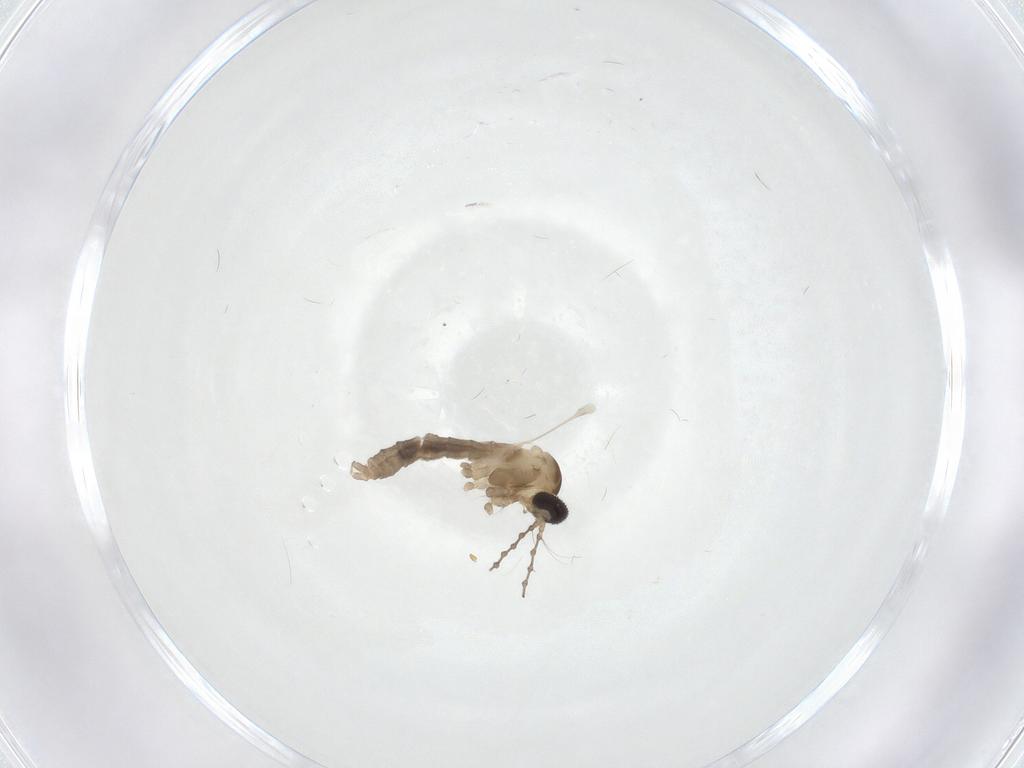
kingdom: Animalia
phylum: Arthropoda
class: Insecta
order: Diptera
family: Cecidomyiidae
